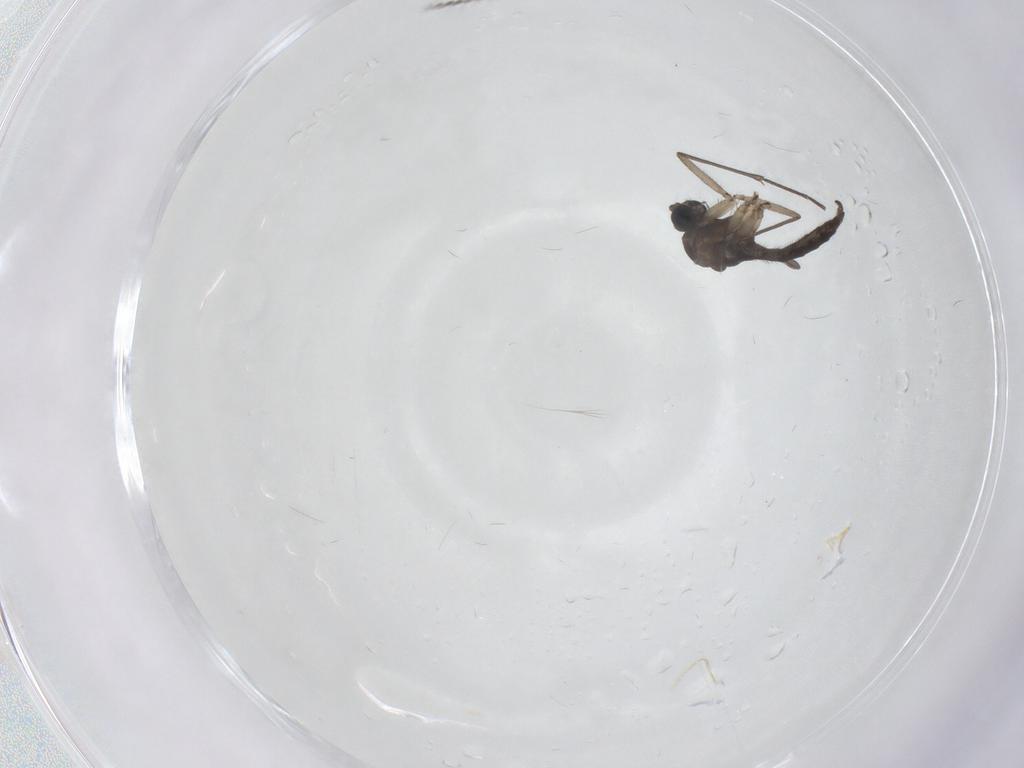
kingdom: Animalia
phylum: Arthropoda
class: Insecta
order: Diptera
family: Sciaridae
